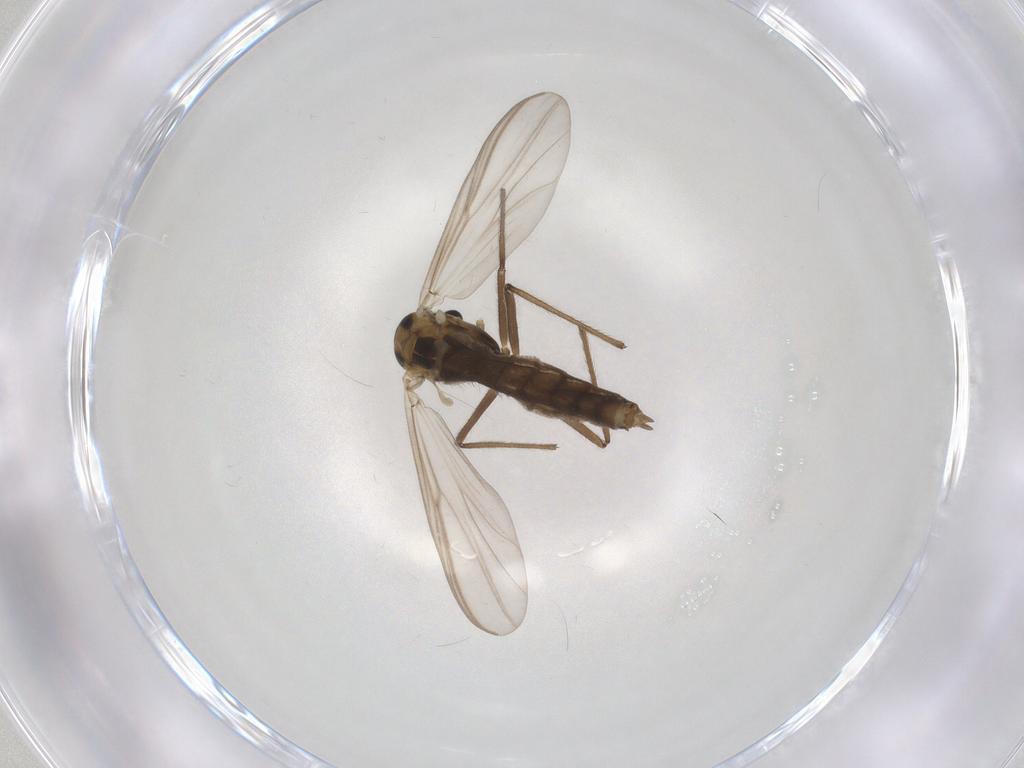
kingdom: Animalia
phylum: Arthropoda
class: Insecta
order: Diptera
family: Chironomidae
